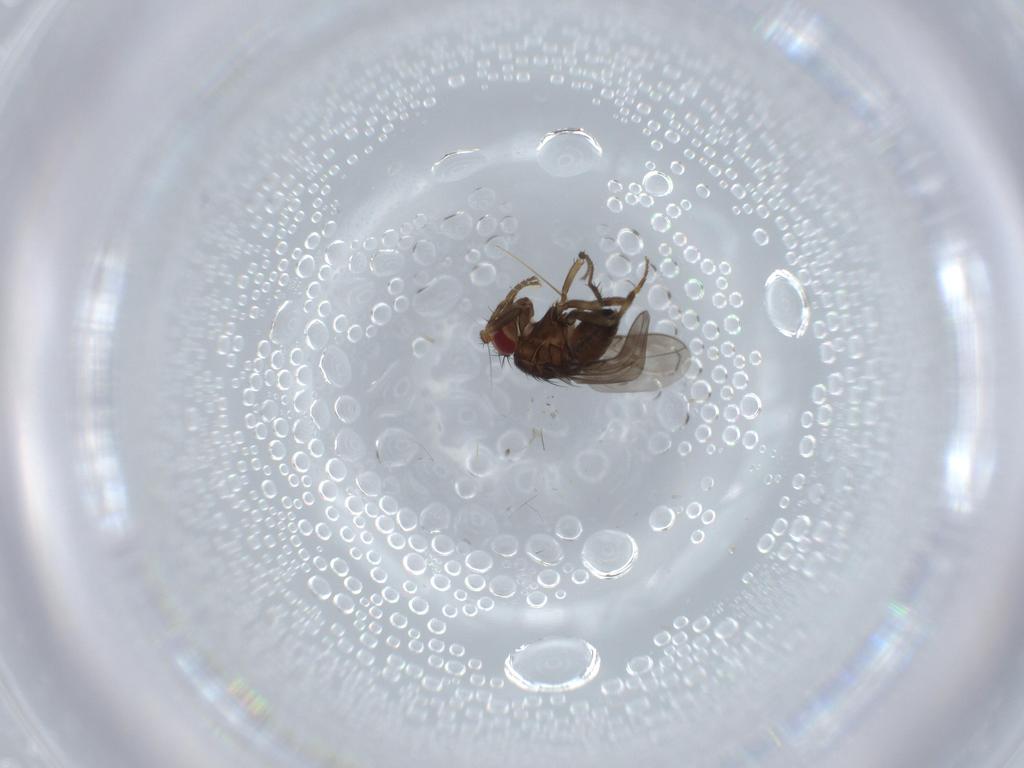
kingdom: Animalia
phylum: Arthropoda
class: Insecta
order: Diptera
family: Sphaeroceridae
